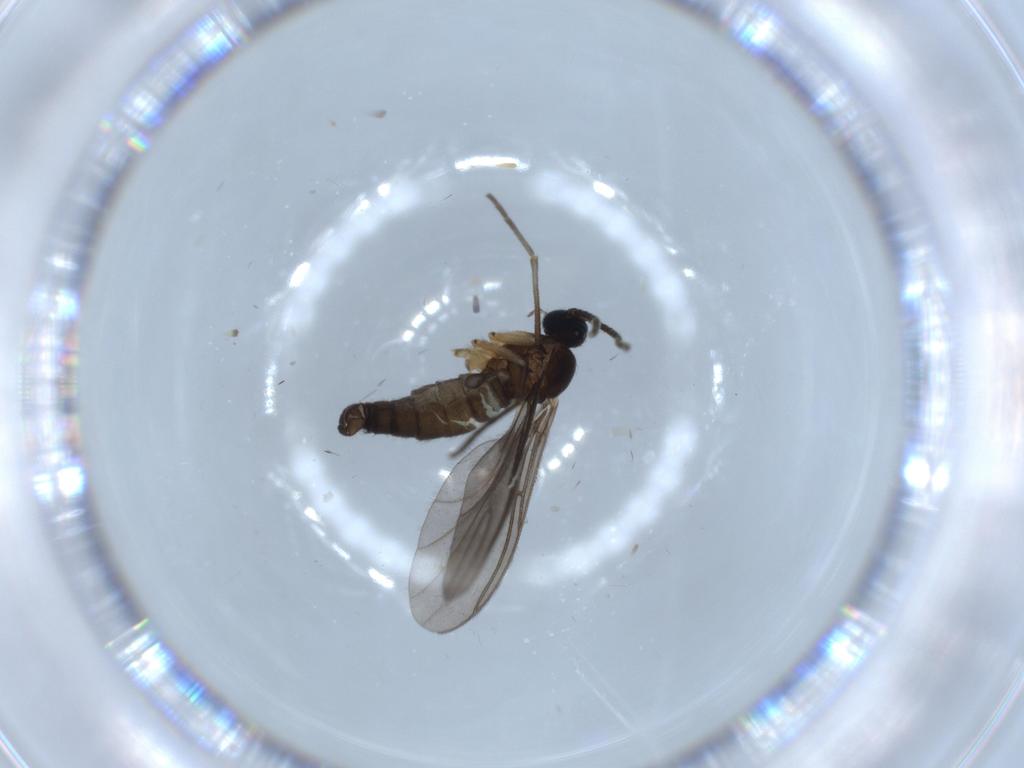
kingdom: Animalia
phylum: Arthropoda
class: Insecta
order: Diptera
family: Sciaridae
